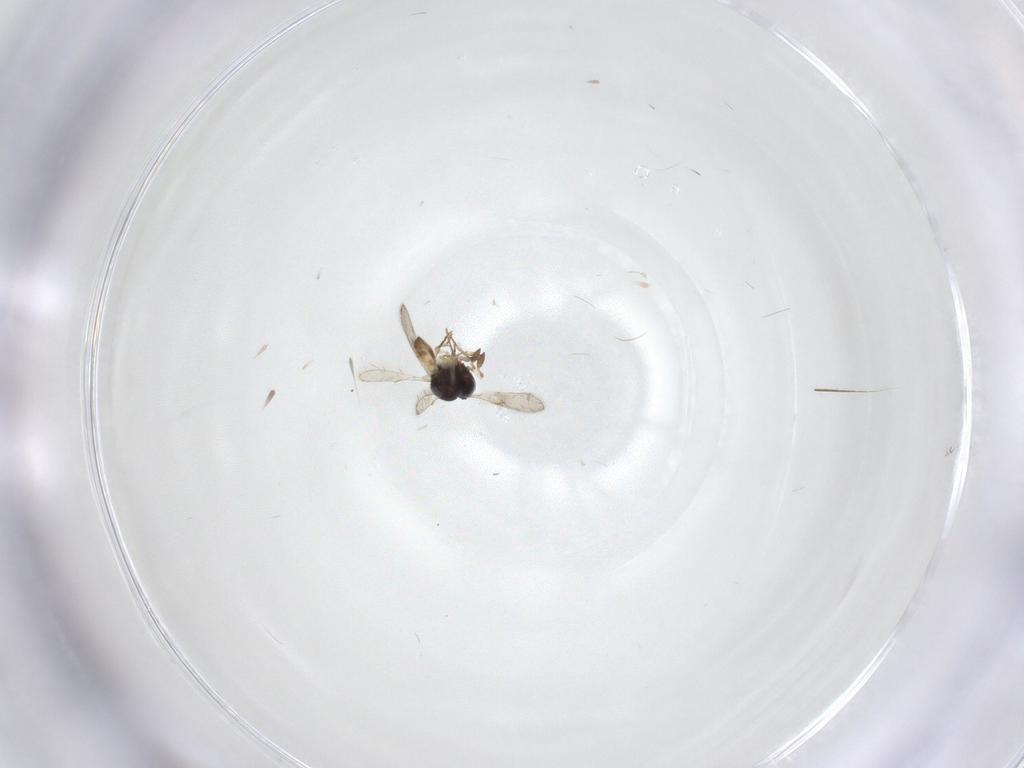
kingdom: Animalia
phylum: Arthropoda
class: Insecta
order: Hymenoptera
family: Scelionidae
